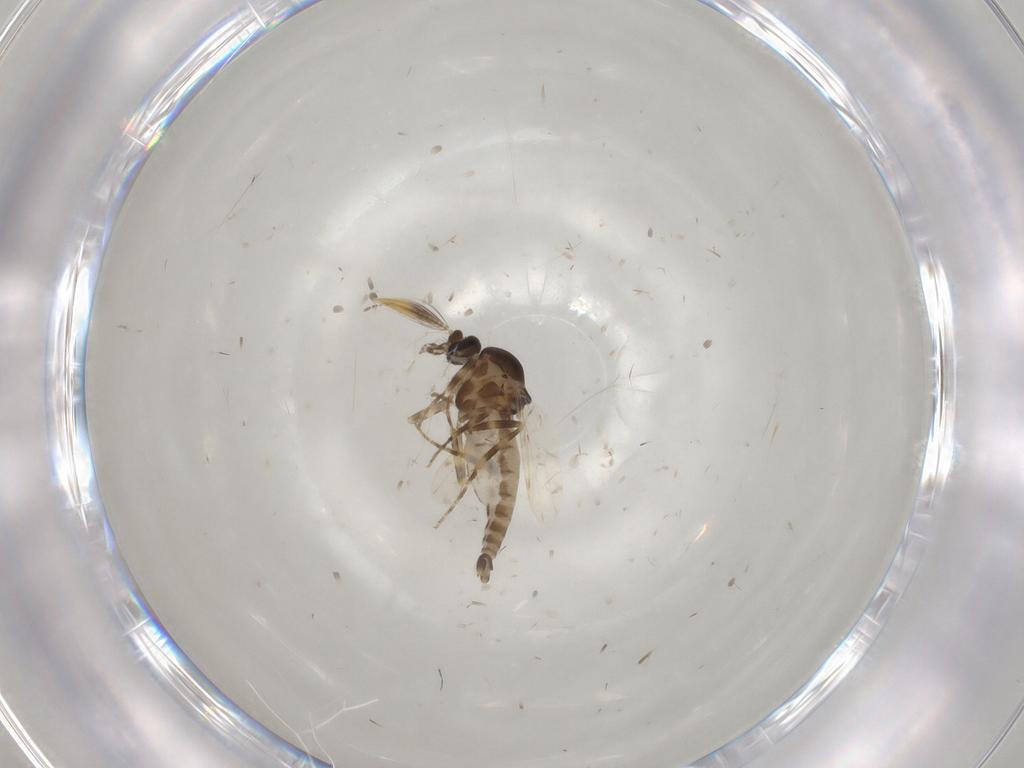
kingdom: Animalia
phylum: Arthropoda
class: Insecta
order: Diptera
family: Ceratopogonidae
